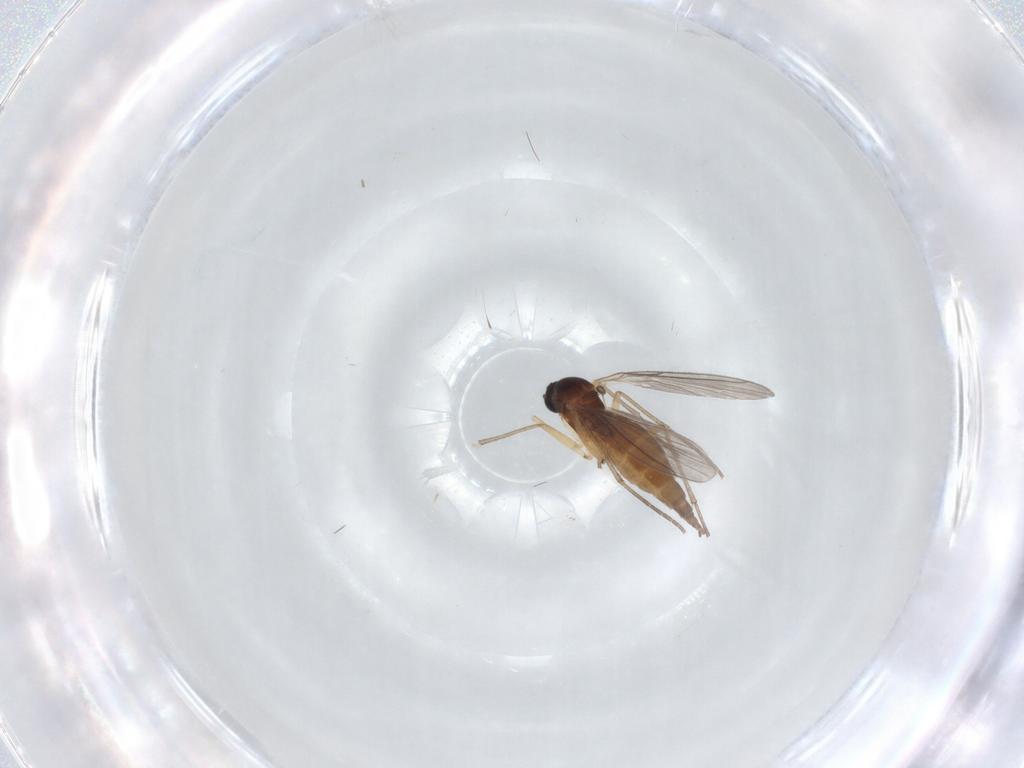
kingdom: Animalia
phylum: Arthropoda
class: Insecta
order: Diptera
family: Sciaridae
